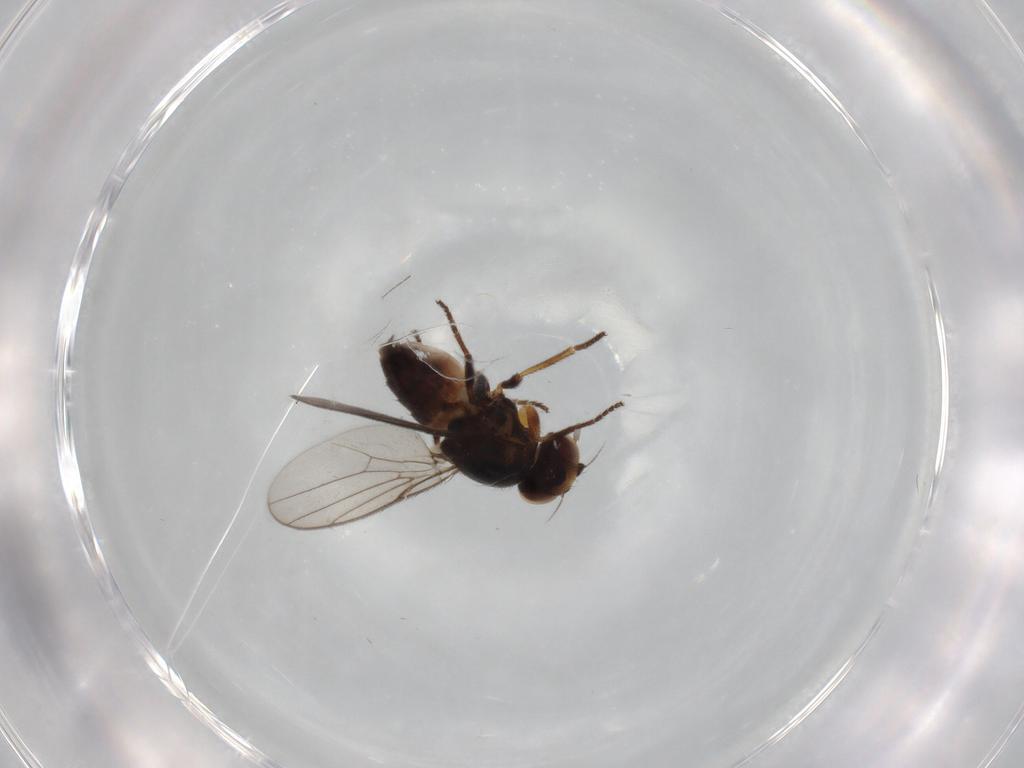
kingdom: Animalia
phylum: Arthropoda
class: Insecta
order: Diptera
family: Chloropidae
